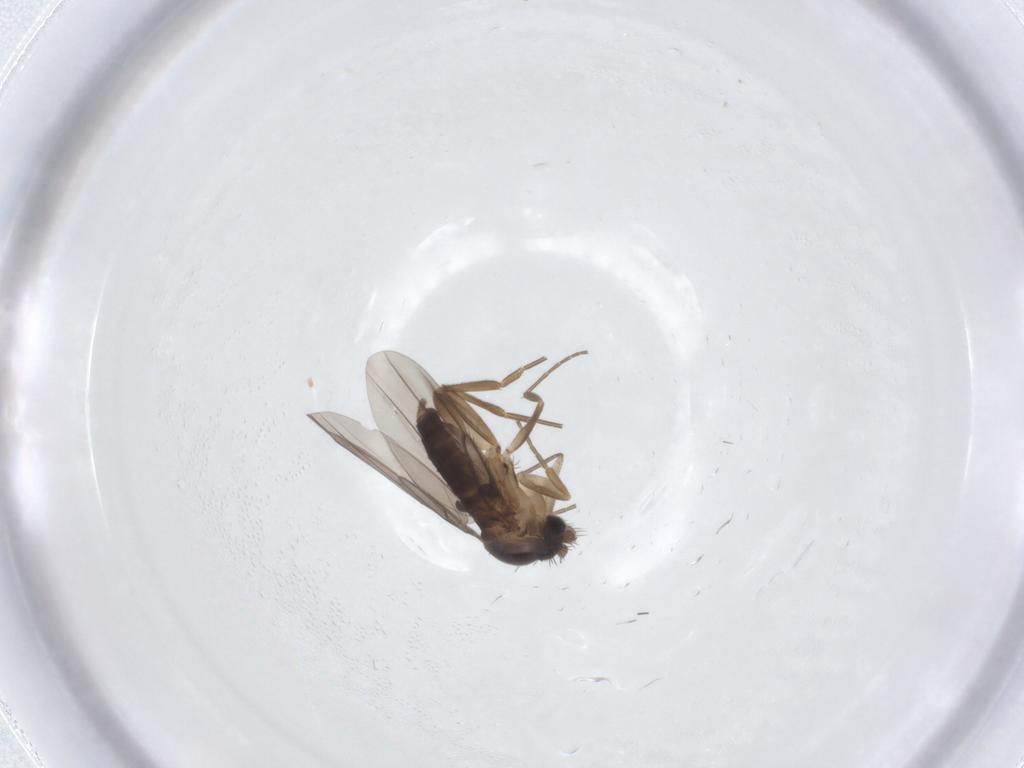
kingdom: Animalia
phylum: Arthropoda
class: Insecta
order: Diptera
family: Phoridae
